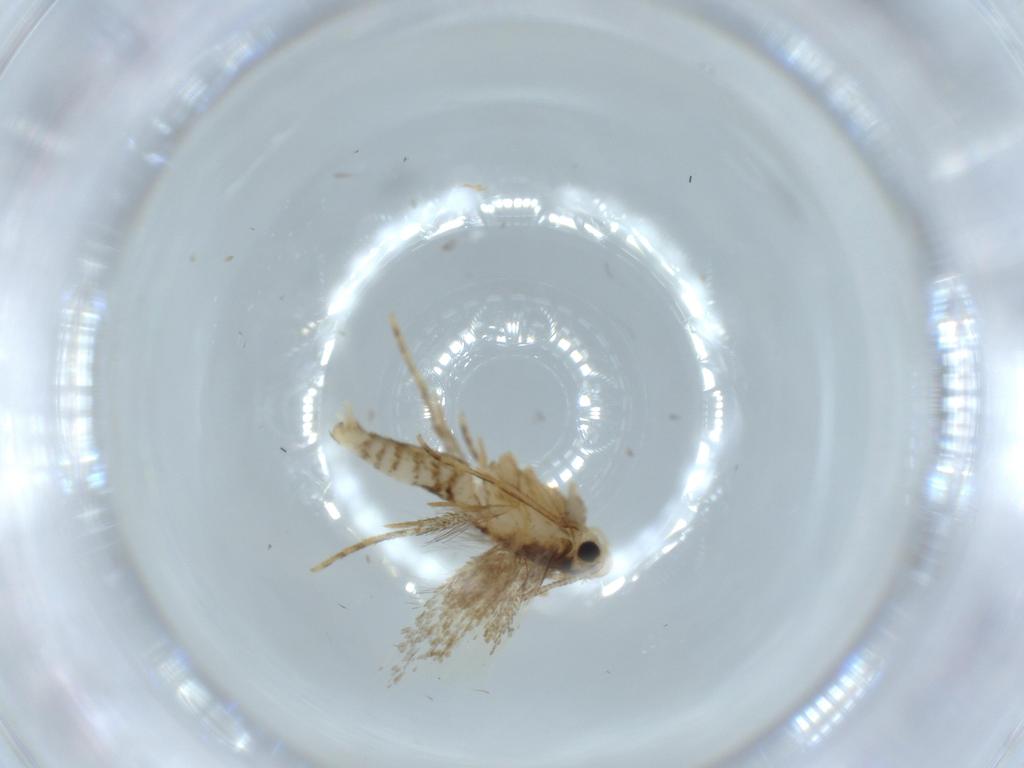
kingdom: Animalia
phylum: Arthropoda
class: Insecta
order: Lepidoptera
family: Tineidae
